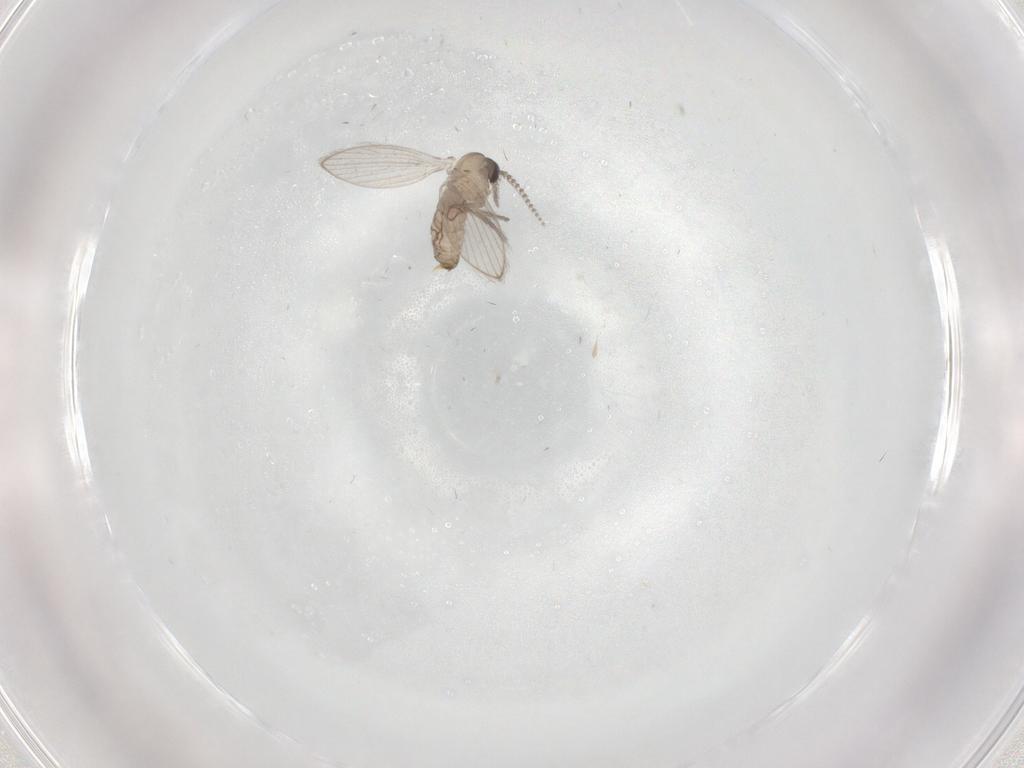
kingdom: Animalia
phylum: Arthropoda
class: Insecta
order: Diptera
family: Psychodidae
